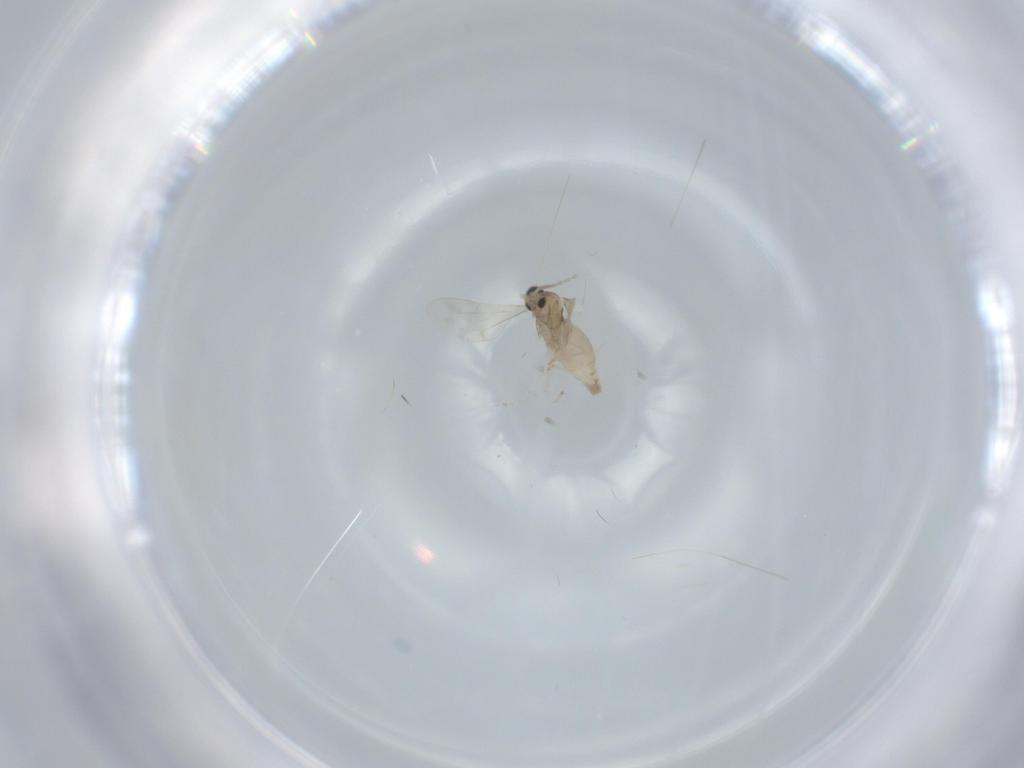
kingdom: Animalia
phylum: Arthropoda
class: Insecta
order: Diptera
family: Cecidomyiidae
